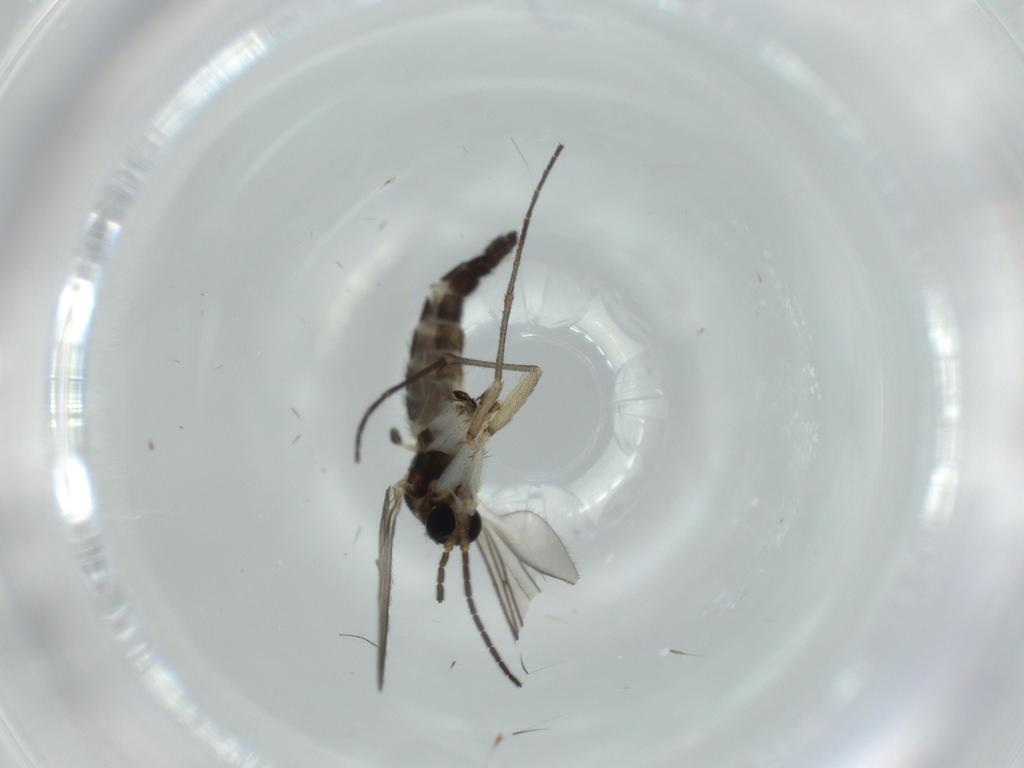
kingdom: Animalia
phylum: Arthropoda
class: Insecta
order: Diptera
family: Sciaridae
